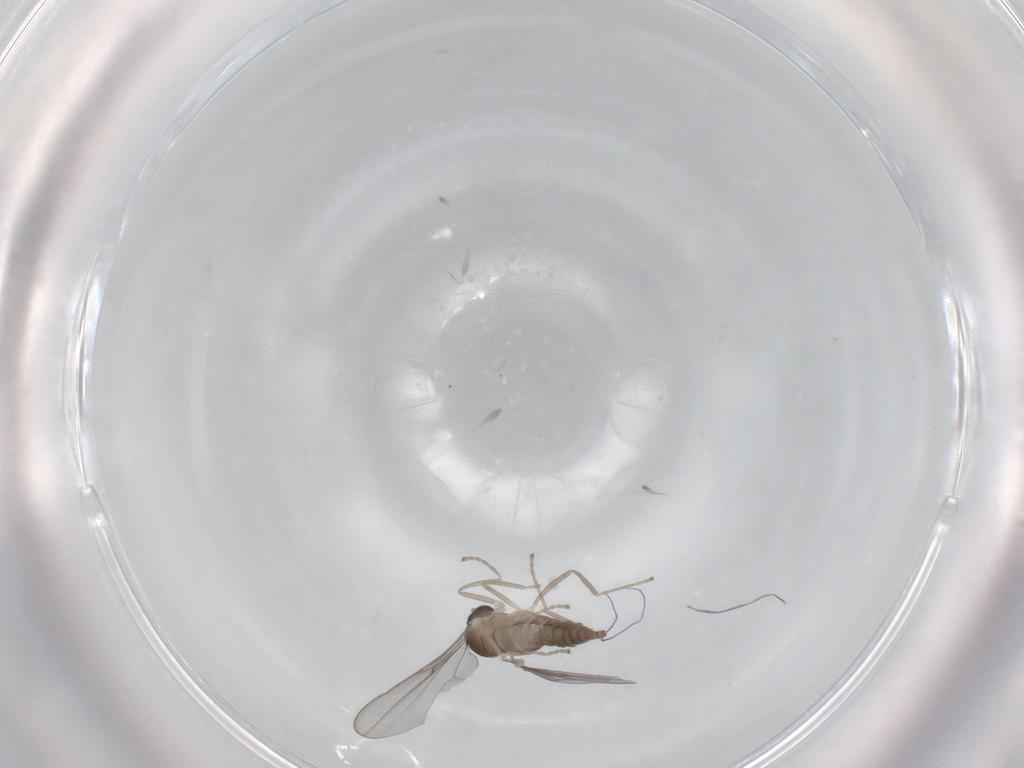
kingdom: Animalia
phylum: Arthropoda
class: Insecta
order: Diptera
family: Cecidomyiidae
